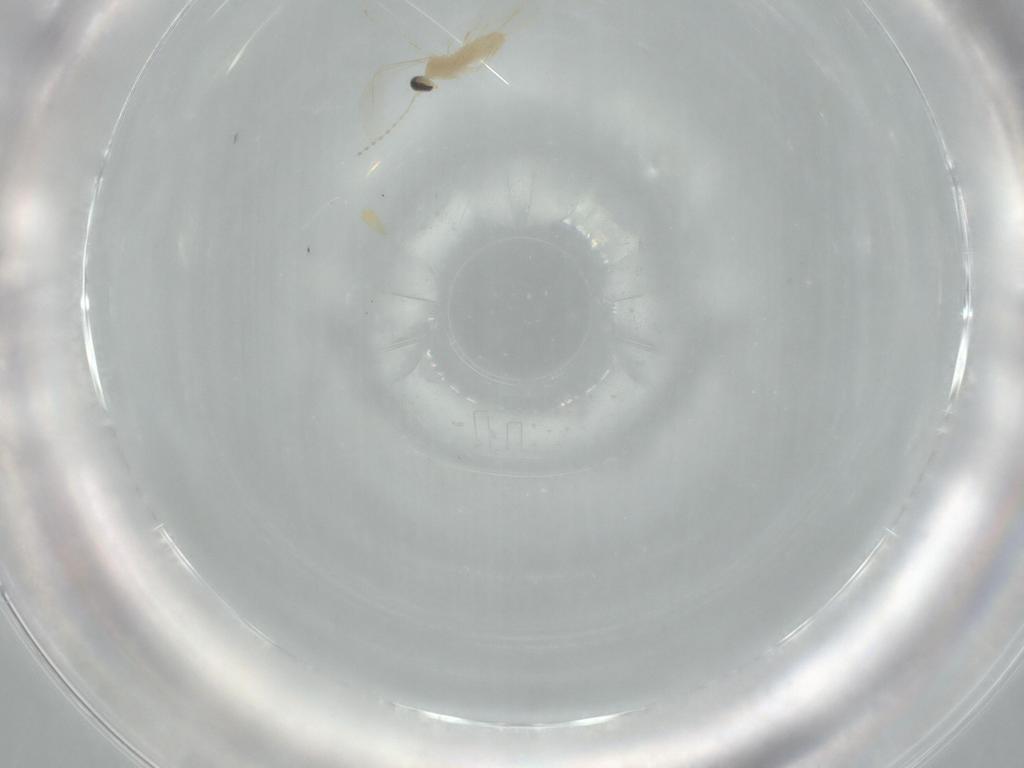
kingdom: Animalia
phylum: Arthropoda
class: Insecta
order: Diptera
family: Cecidomyiidae
